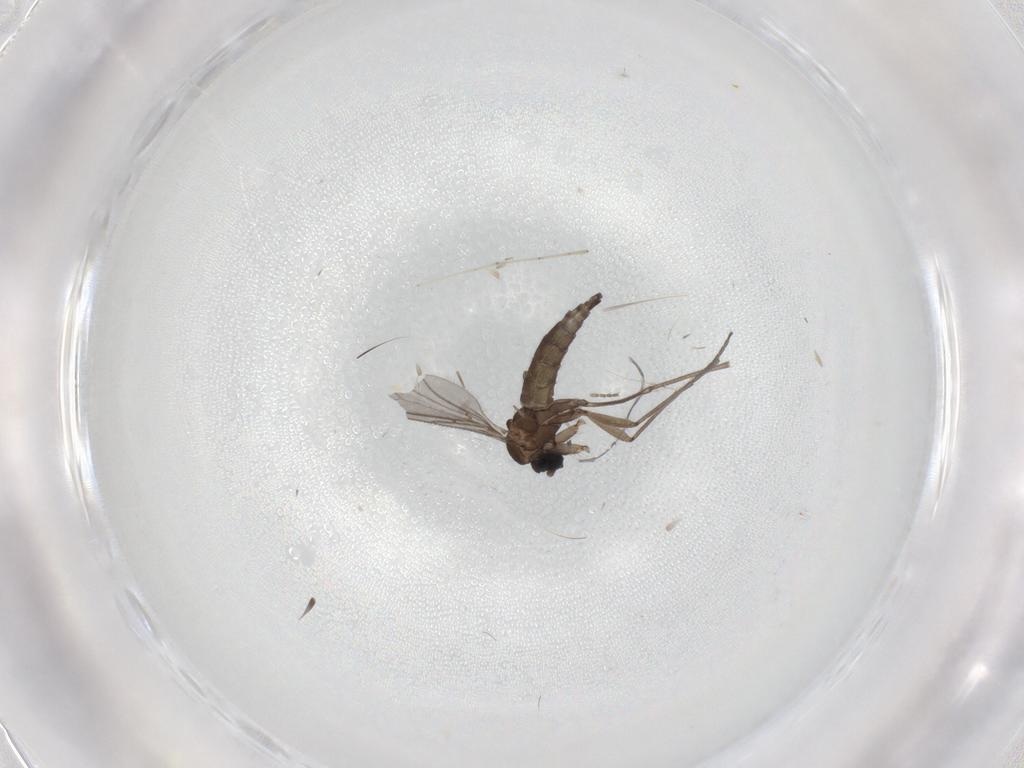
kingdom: Animalia
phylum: Arthropoda
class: Insecta
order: Diptera
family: Sciaridae
